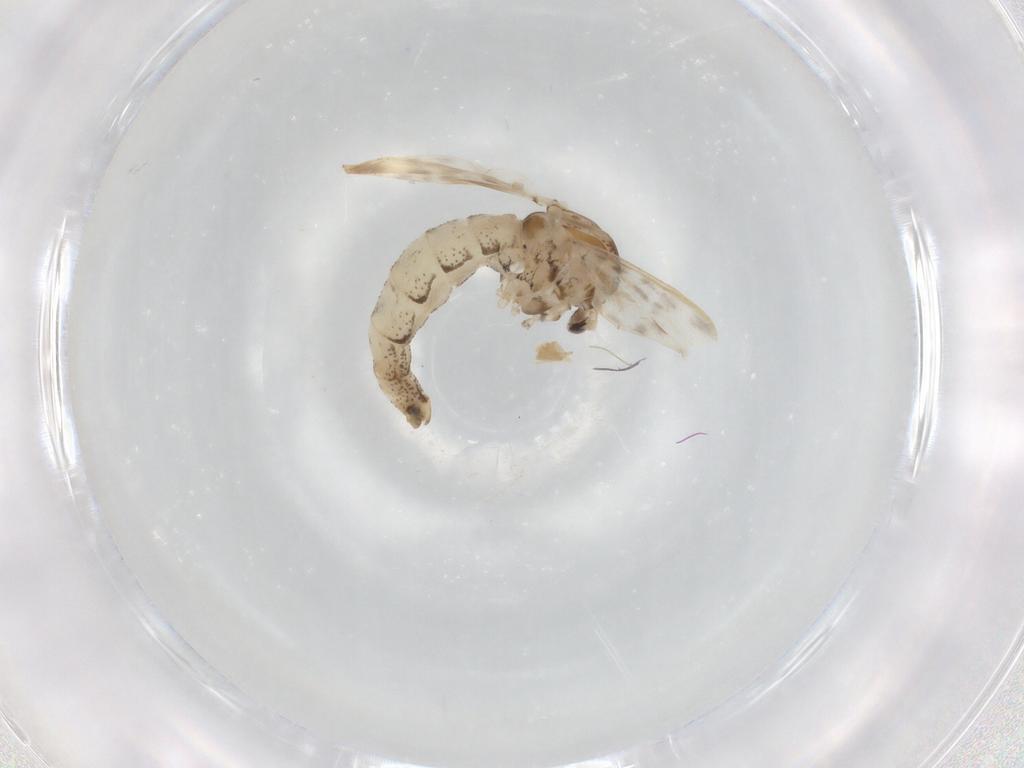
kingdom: Animalia
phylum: Arthropoda
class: Insecta
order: Diptera
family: Chaoboridae
